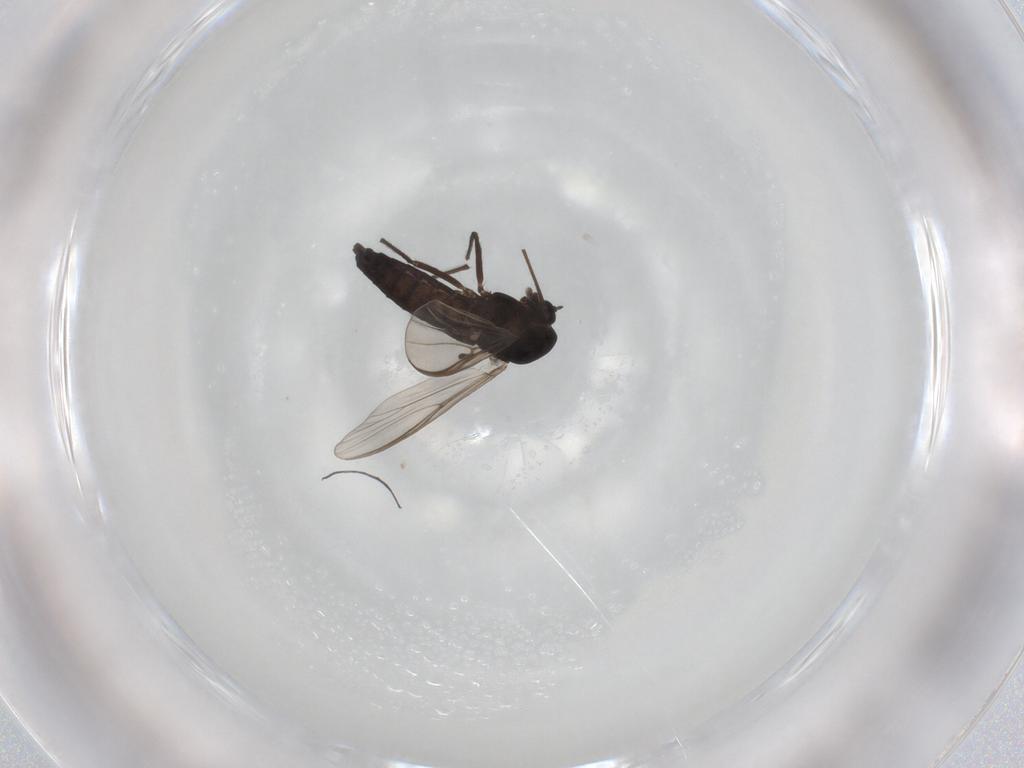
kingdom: Animalia
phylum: Arthropoda
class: Insecta
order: Diptera
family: Chironomidae
